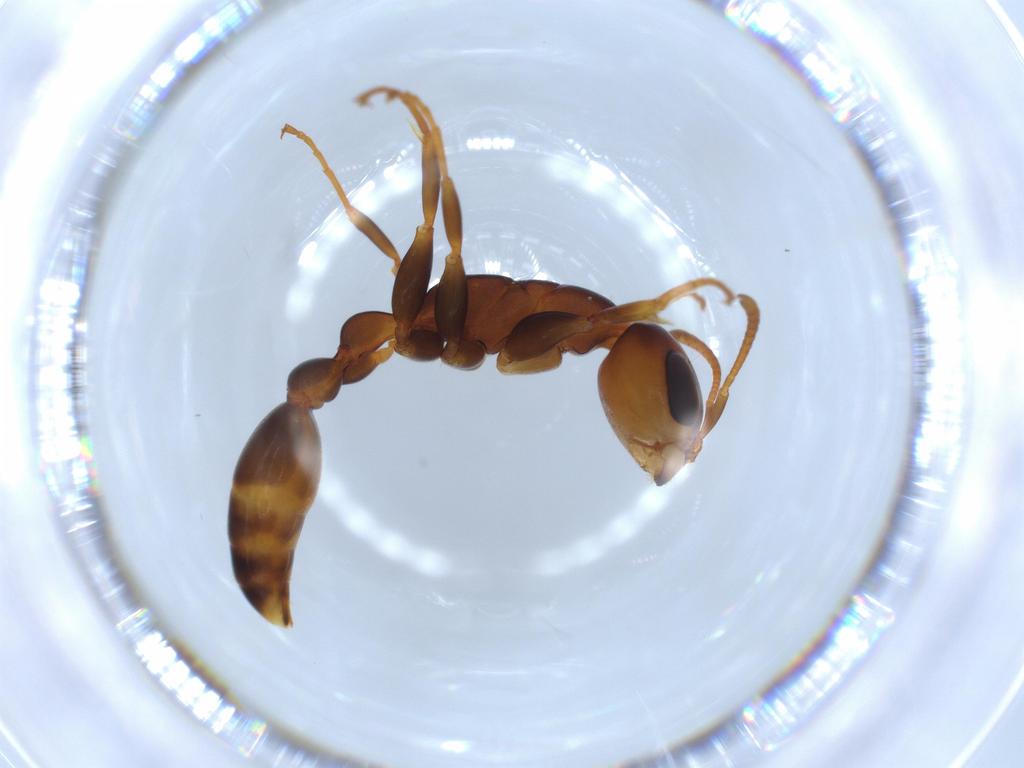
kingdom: Animalia
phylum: Arthropoda
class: Insecta
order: Hymenoptera
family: Formicidae
